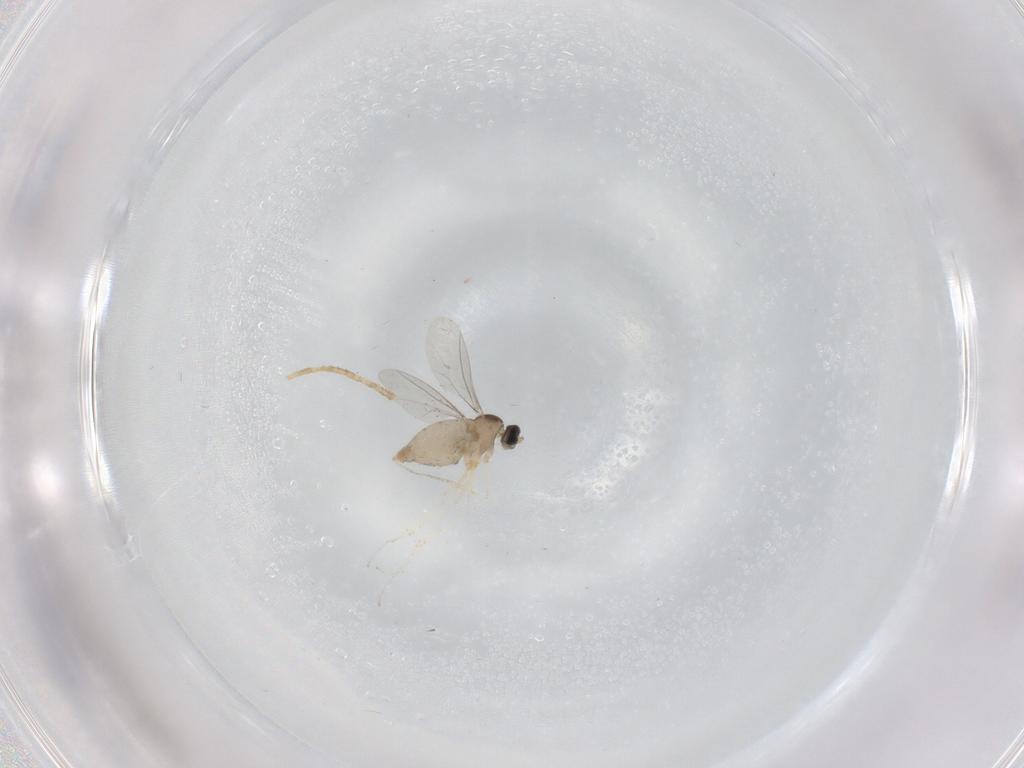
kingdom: Animalia
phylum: Arthropoda
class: Insecta
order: Diptera
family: Cecidomyiidae
